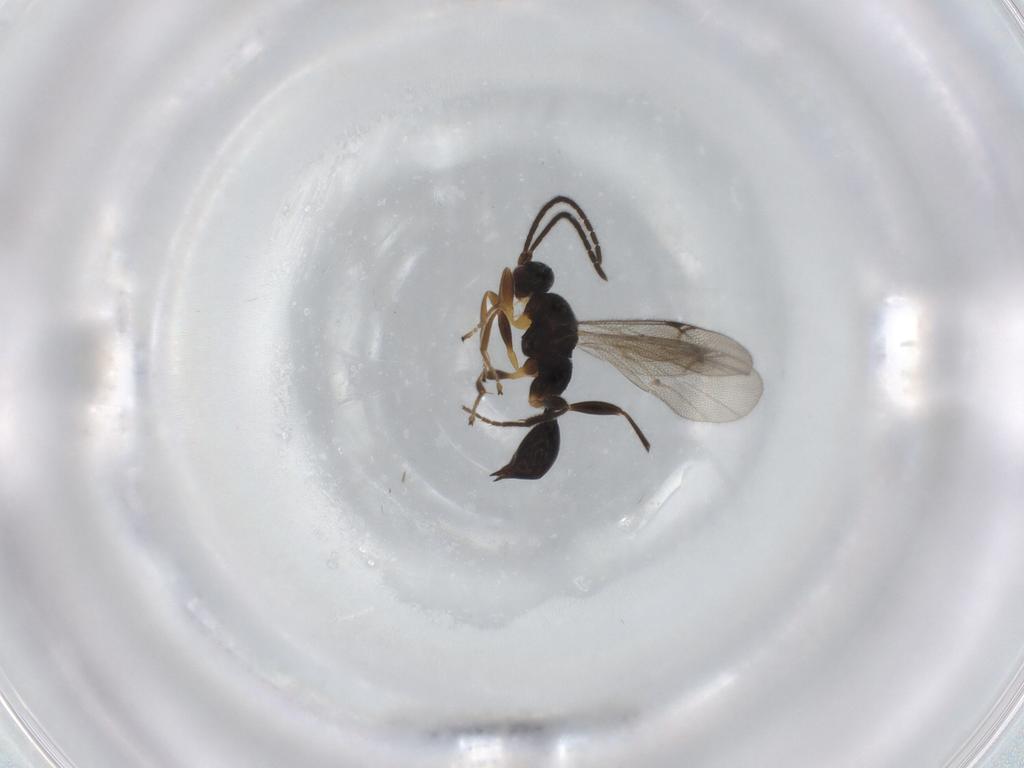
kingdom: Animalia
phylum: Arthropoda
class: Insecta
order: Hymenoptera
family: Proctotrupidae
